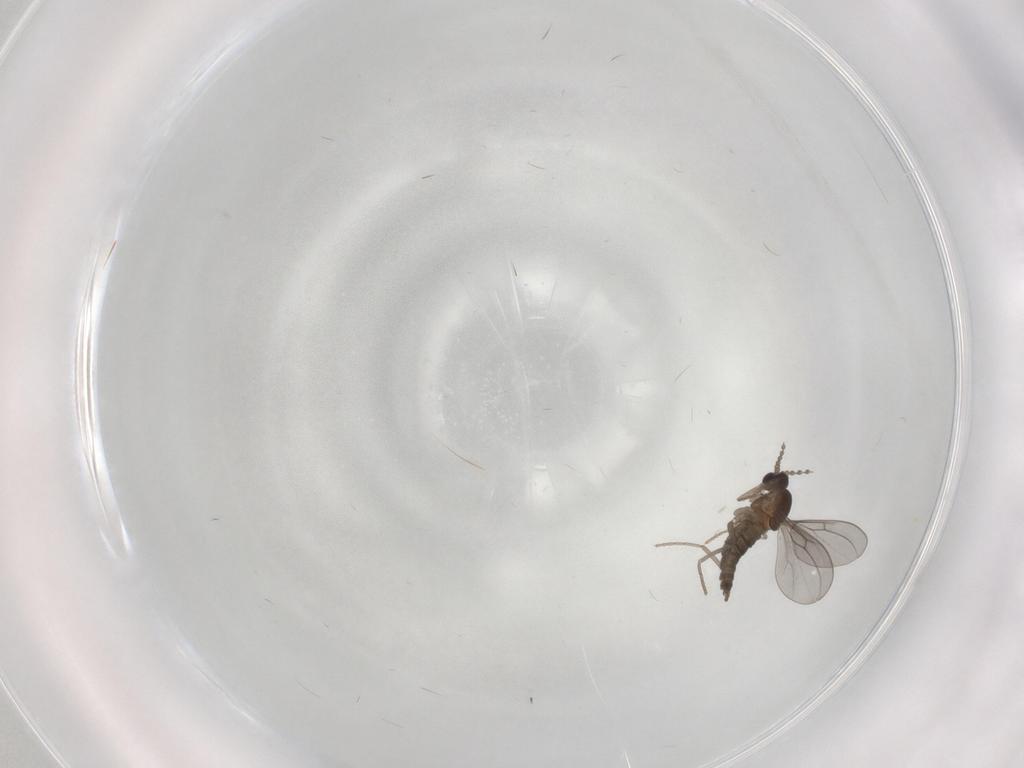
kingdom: Animalia
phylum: Arthropoda
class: Insecta
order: Diptera
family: Cecidomyiidae
